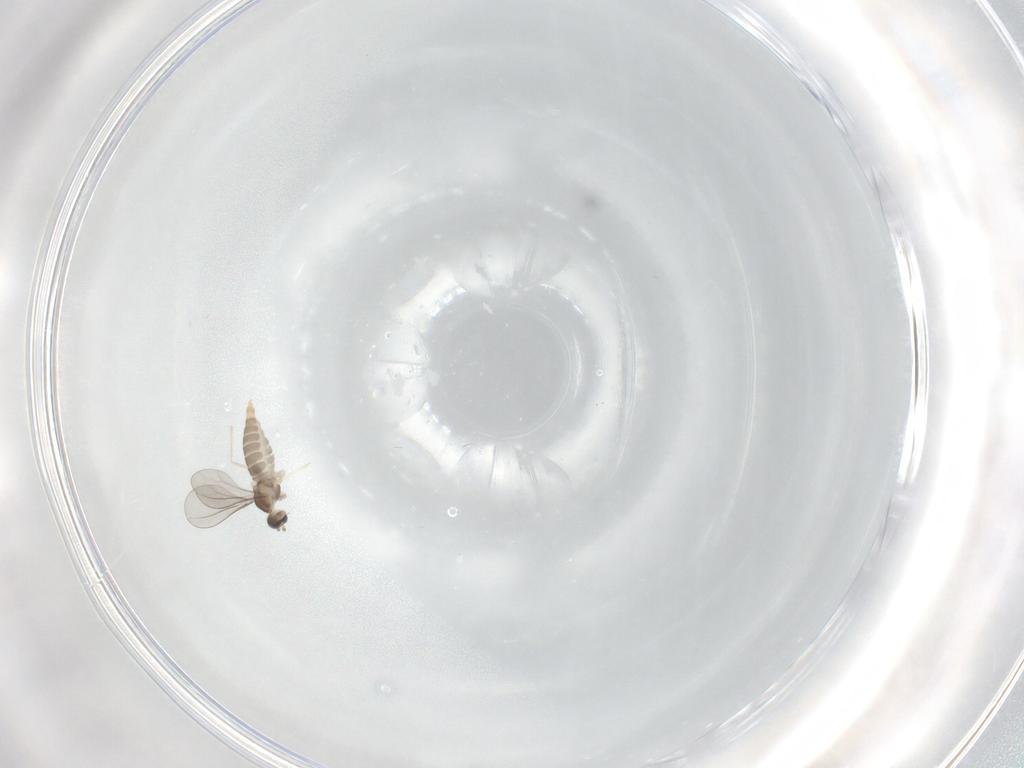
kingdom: Animalia
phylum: Arthropoda
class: Insecta
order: Diptera
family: Cecidomyiidae
